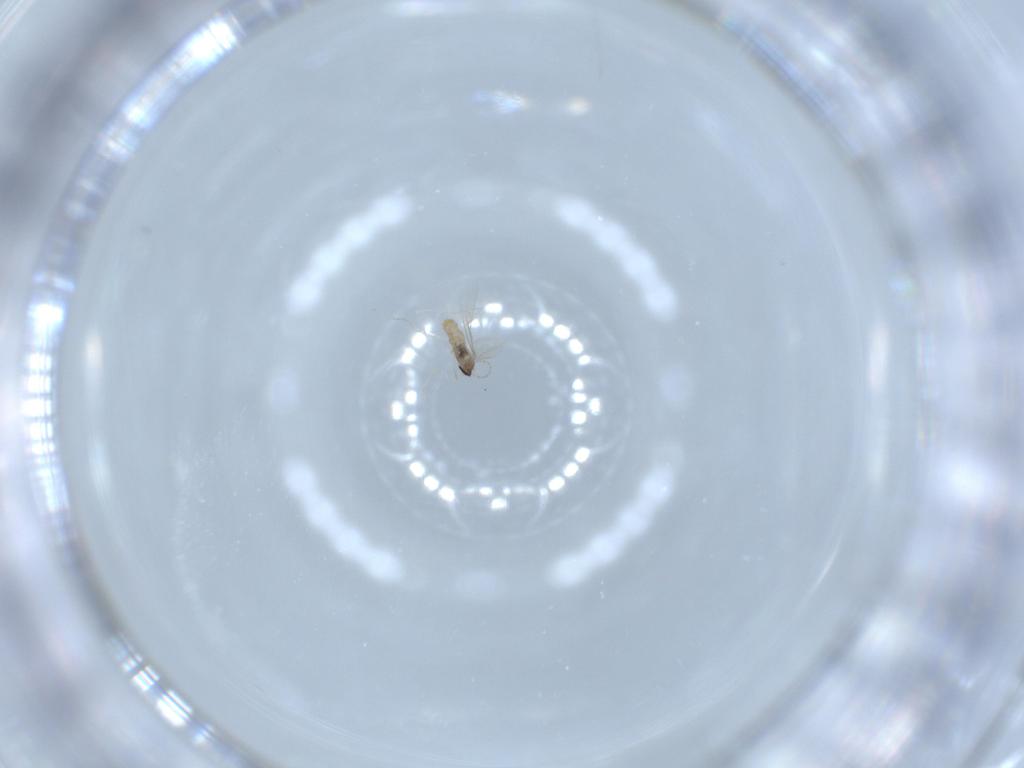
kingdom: Animalia
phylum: Arthropoda
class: Insecta
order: Diptera
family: Cecidomyiidae
